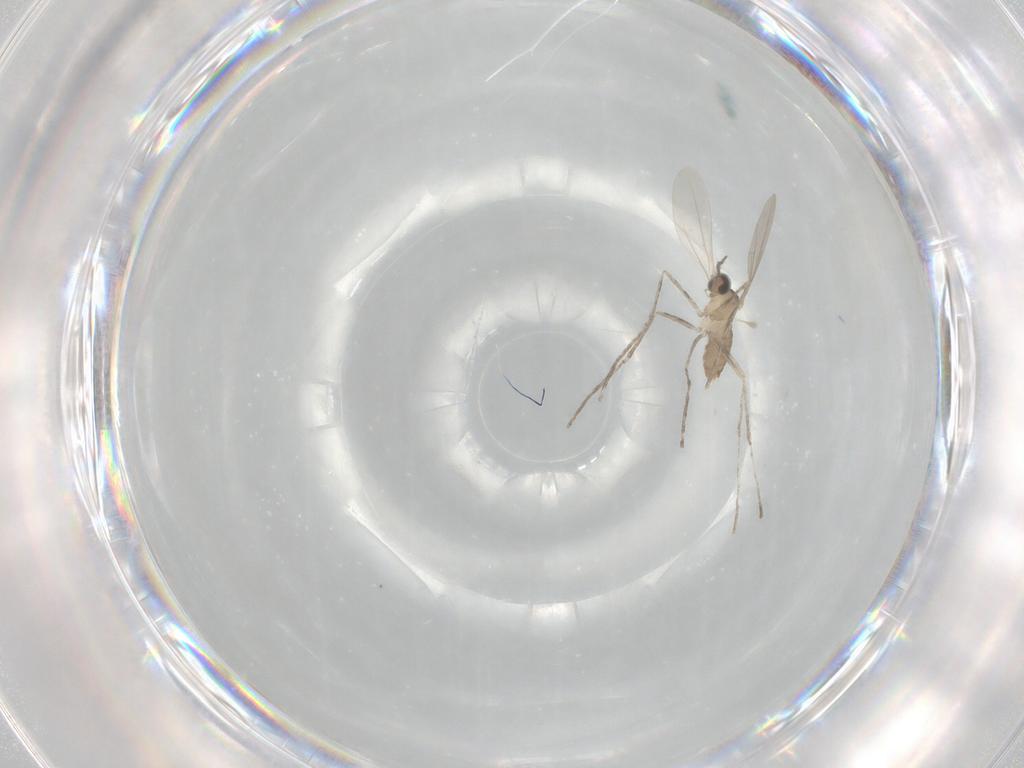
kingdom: Animalia
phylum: Arthropoda
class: Insecta
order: Diptera
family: Cecidomyiidae
